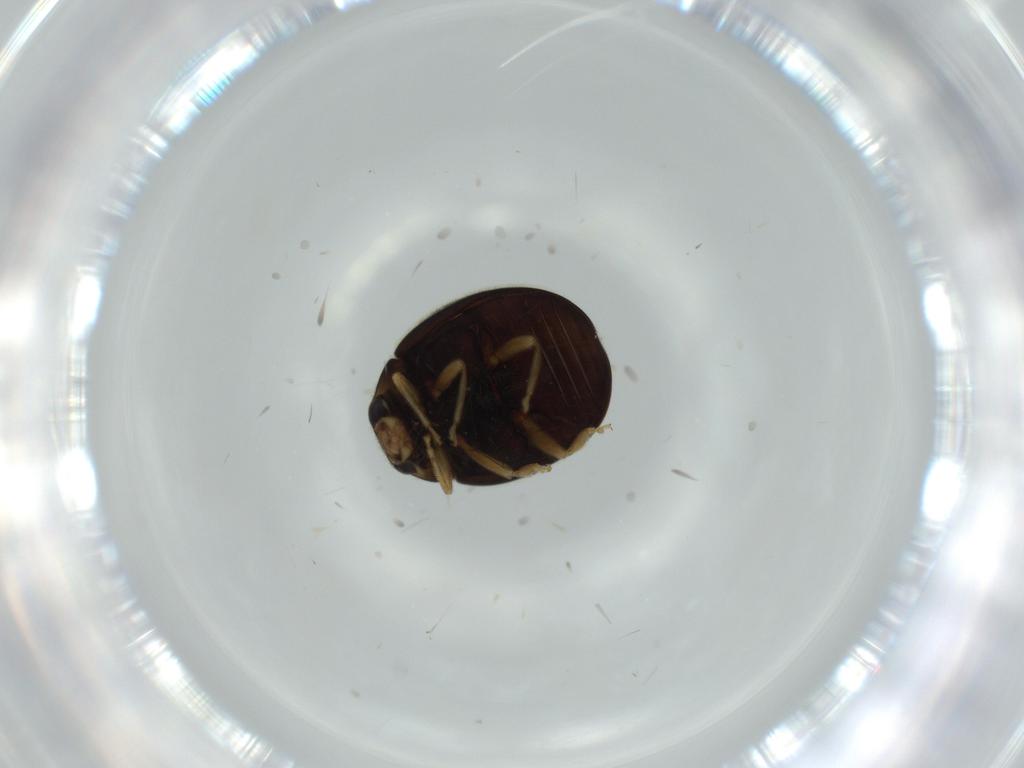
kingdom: Animalia
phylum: Arthropoda
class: Insecta
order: Coleoptera
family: Coccinellidae
